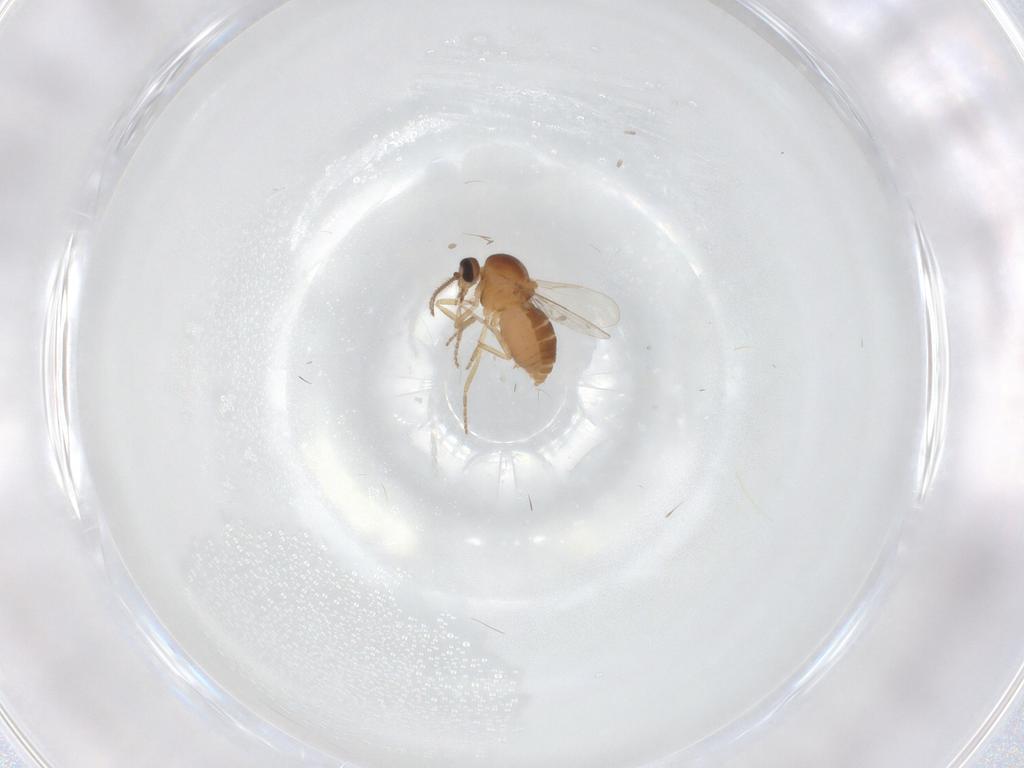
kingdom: Animalia
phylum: Arthropoda
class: Insecta
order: Diptera
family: Ceratopogonidae
